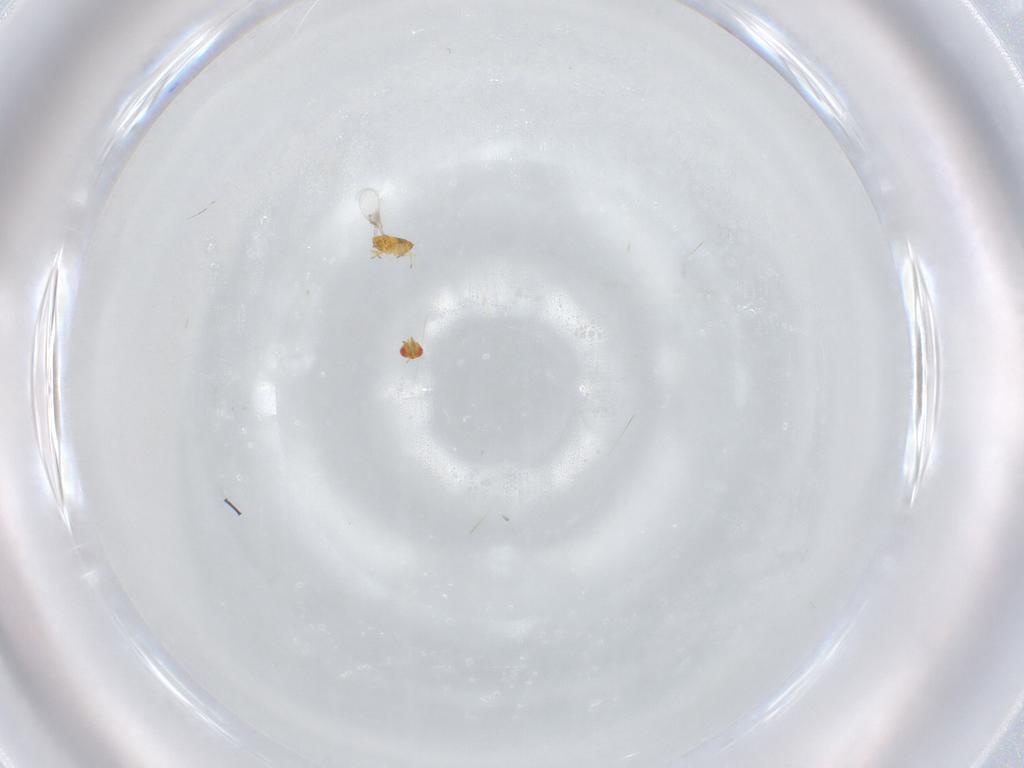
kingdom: Animalia
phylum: Arthropoda
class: Insecta
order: Hymenoptera
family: Trichogrammatidae
